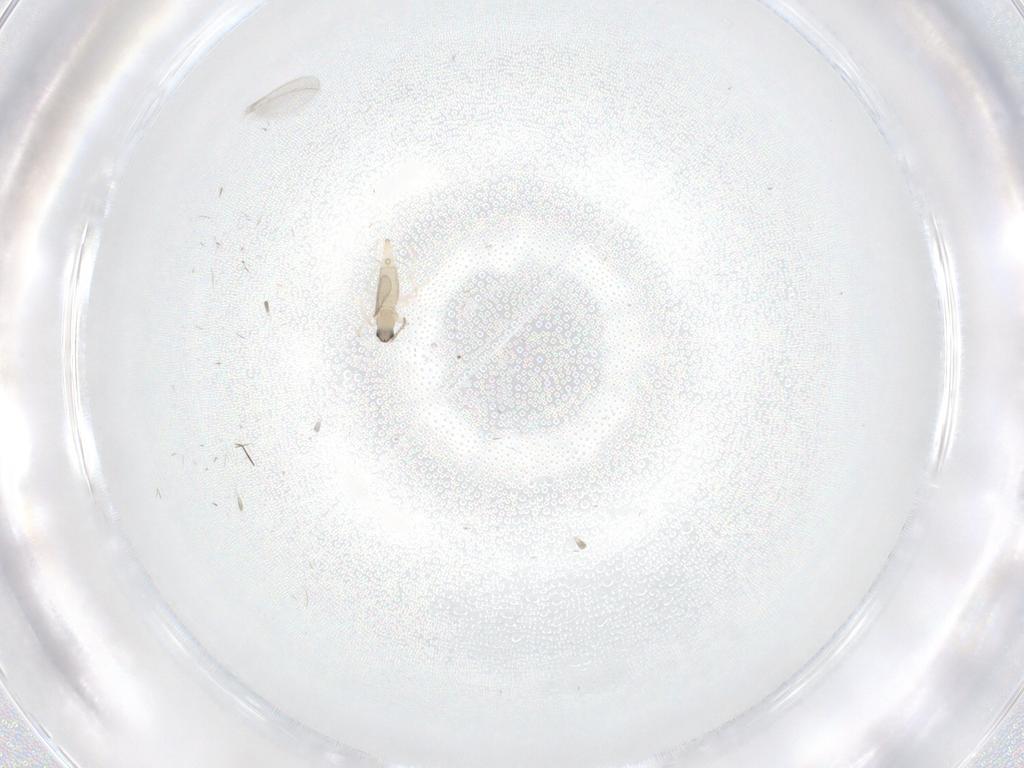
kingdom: Animalia
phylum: Arthropoda
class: Insecta
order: Diptera
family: Cecidomyiidae
